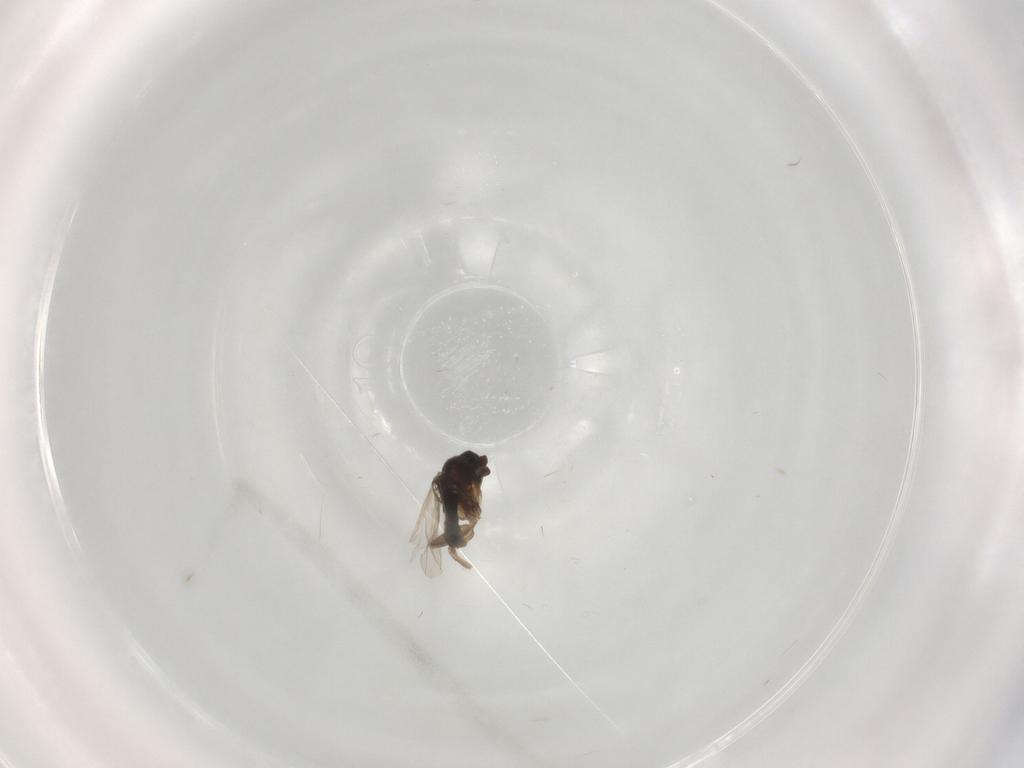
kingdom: Animalia
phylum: Arthropoda
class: Insecta
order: Diptera
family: Phoridae
